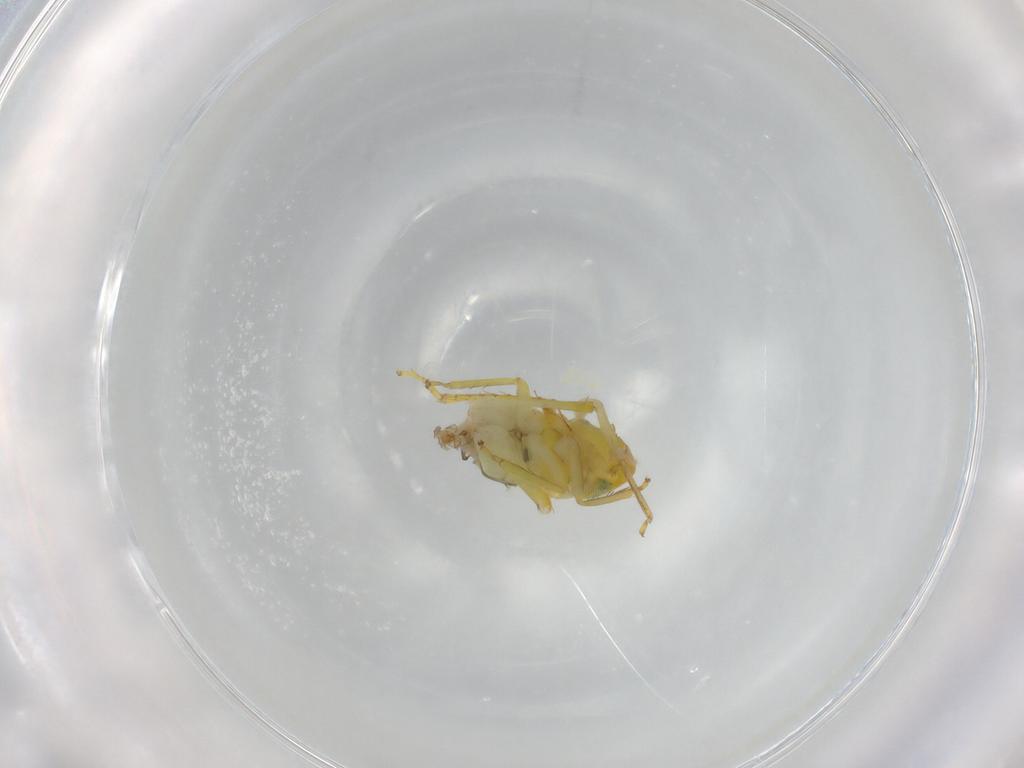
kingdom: Animalia
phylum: Arthropoda
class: Insecta
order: Hemiptera
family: Cicadellidae
